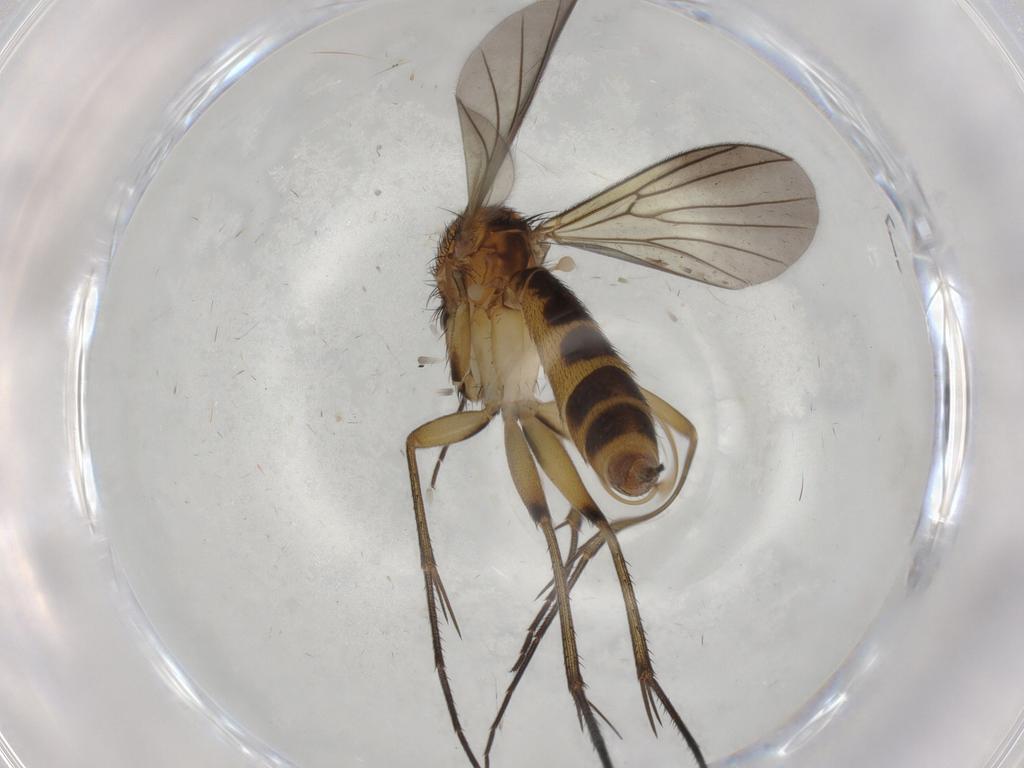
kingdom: Animalia
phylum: Arthropoda
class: Insecta
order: Diptera
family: Mycetophilidae
